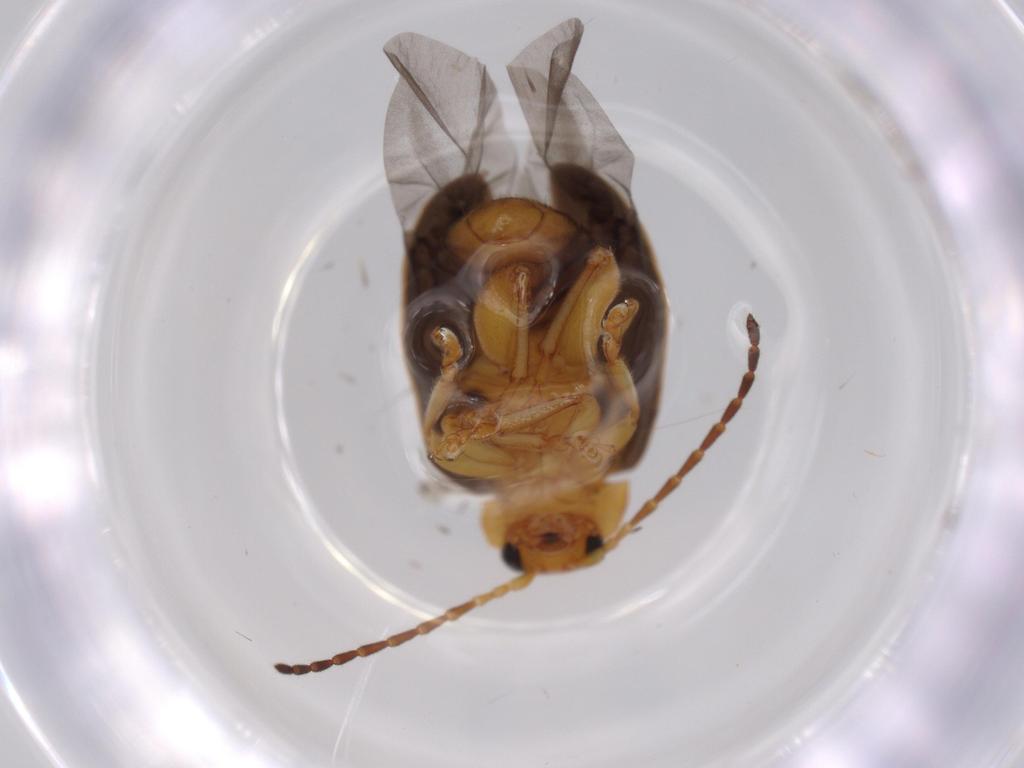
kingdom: Animalia
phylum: Arthropoda
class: Insecta
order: Coleoptera
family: Chrysomelidae
